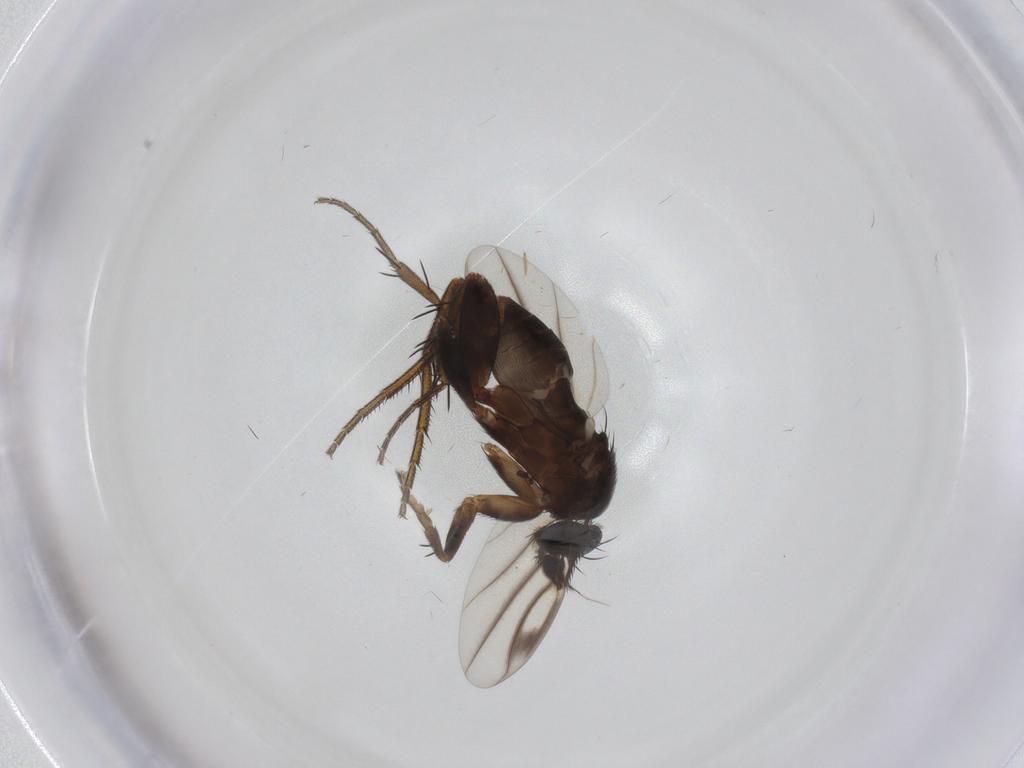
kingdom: Animalia
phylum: Arthropoda
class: Insecta
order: Diptera
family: Phoridae
